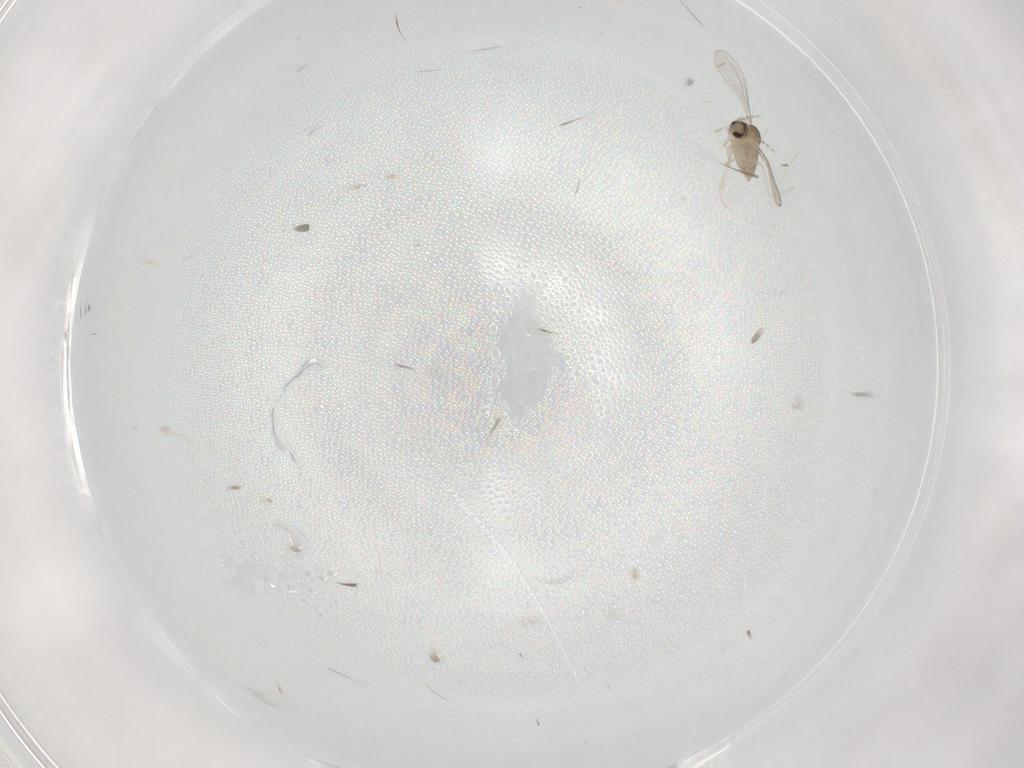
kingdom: Animalia
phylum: Arthropoda
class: Insecta
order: Diptera
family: Cecidomyiidae
